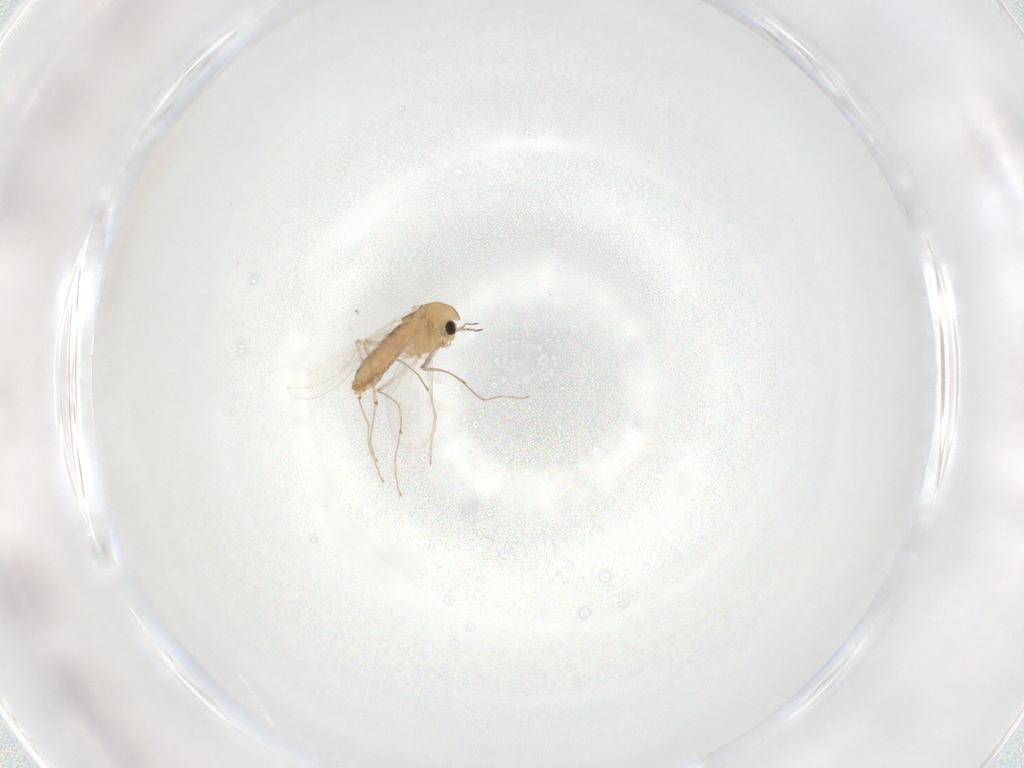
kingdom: Animalia
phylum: Arthropoda
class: Insecta
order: Diptera
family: Chironomidae
